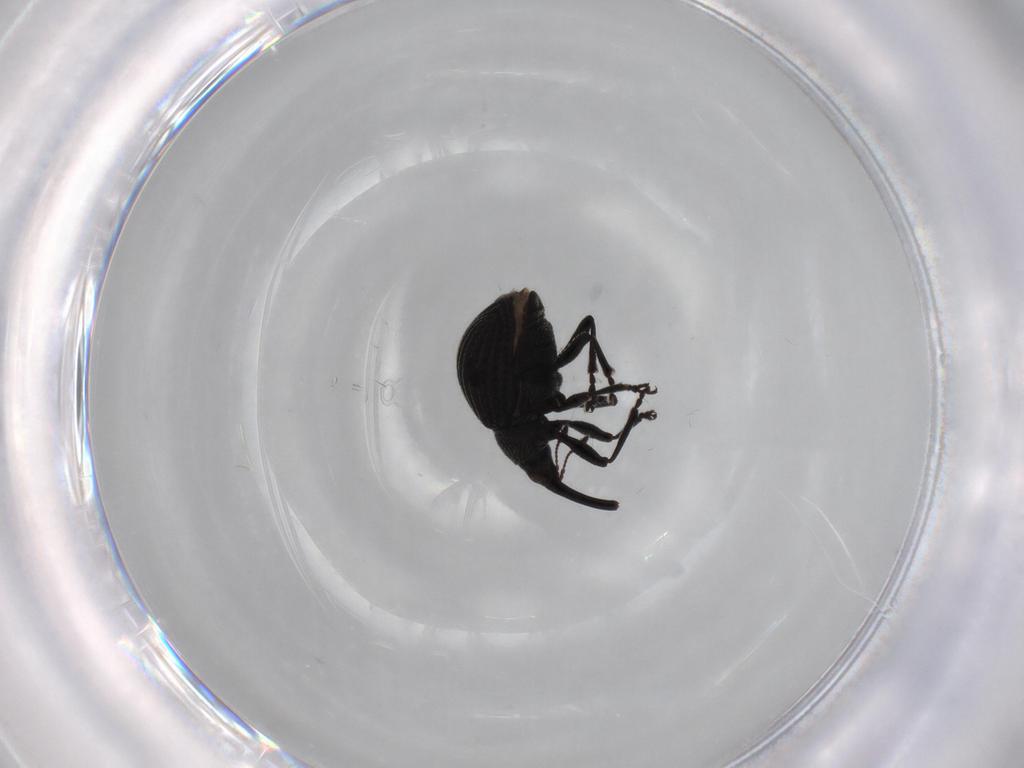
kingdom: Animalia
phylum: Arthropoda
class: Insecta
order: Coleoptera
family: Brentidae
